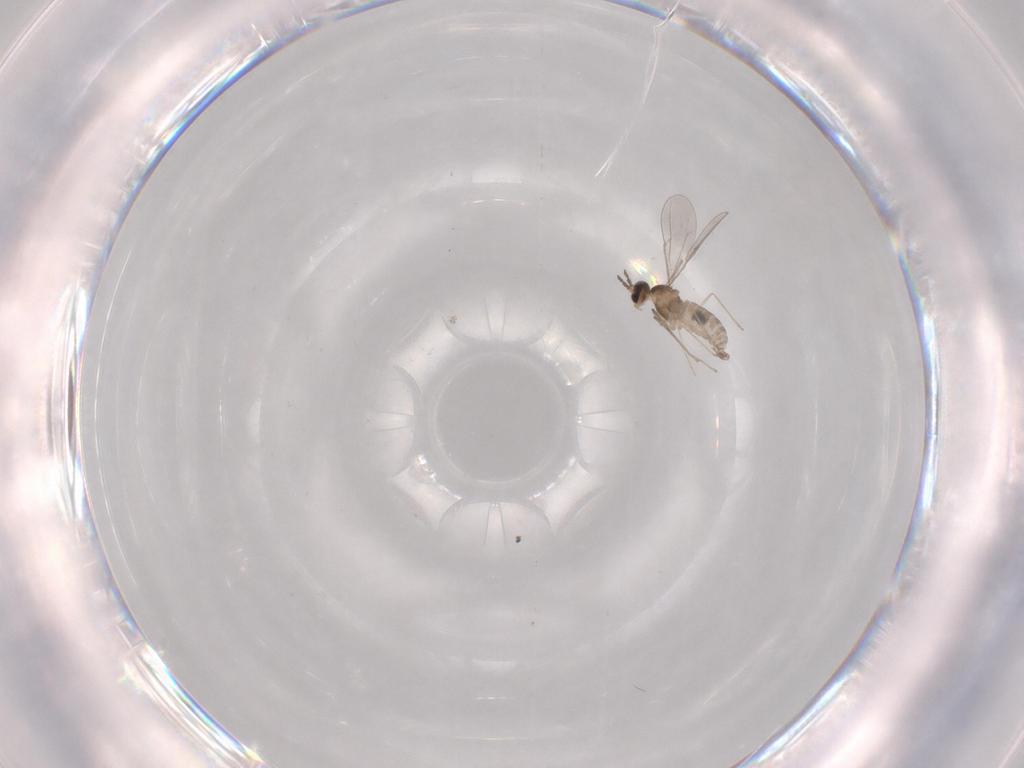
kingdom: Animalia
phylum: Arthropoda
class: Insecta
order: Diptera
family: Chironomidae
